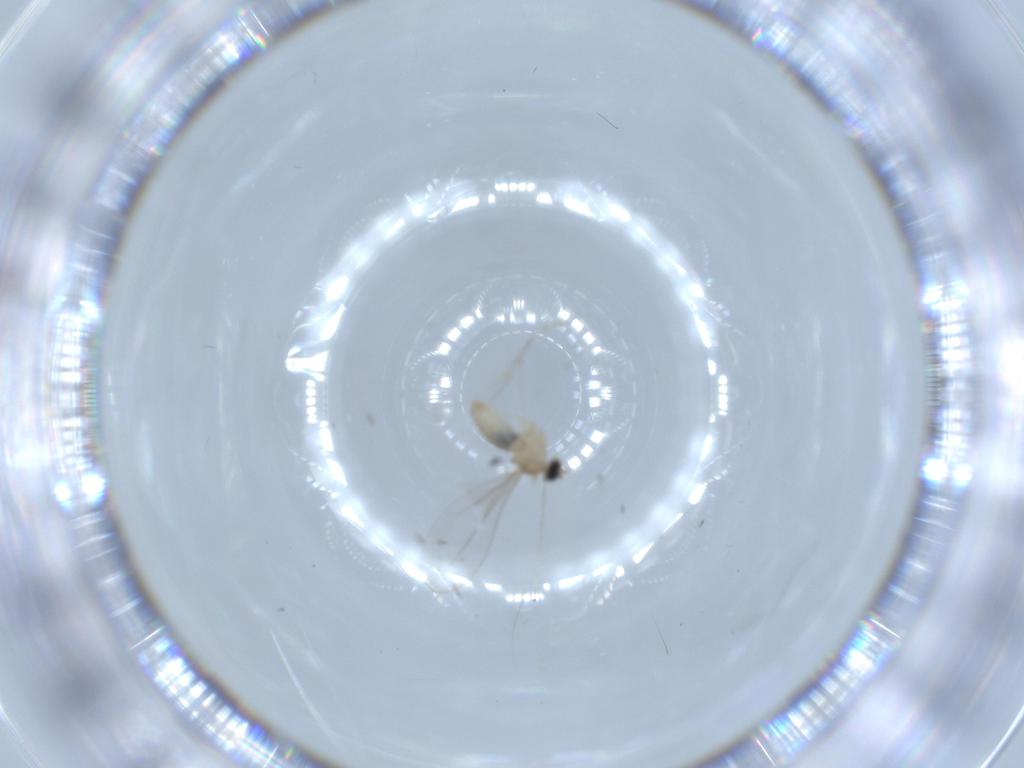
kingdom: Animalia
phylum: Arthropoda
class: Insecta
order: Diptera
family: Cecidomyiidae
